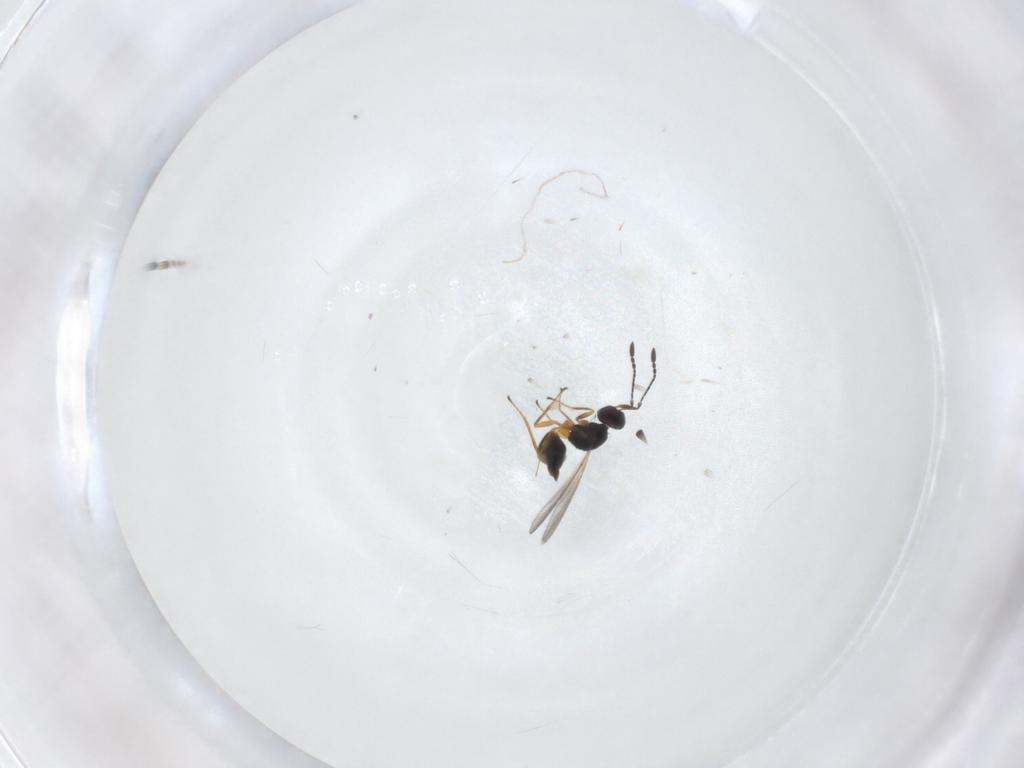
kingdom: Animalia
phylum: Arthropoda
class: Insecta
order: Hymenoptera
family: Mymaridae
